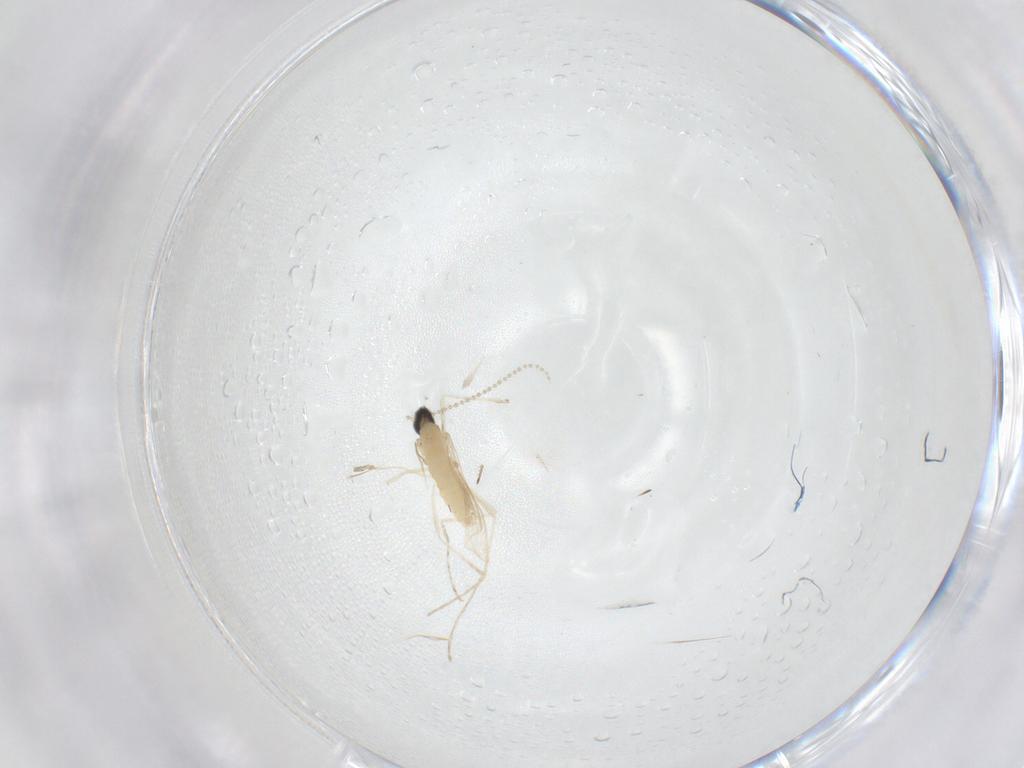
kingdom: Animalia
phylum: Arthropoda
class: Insecta
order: Diptera
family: Cecidomyiidae
